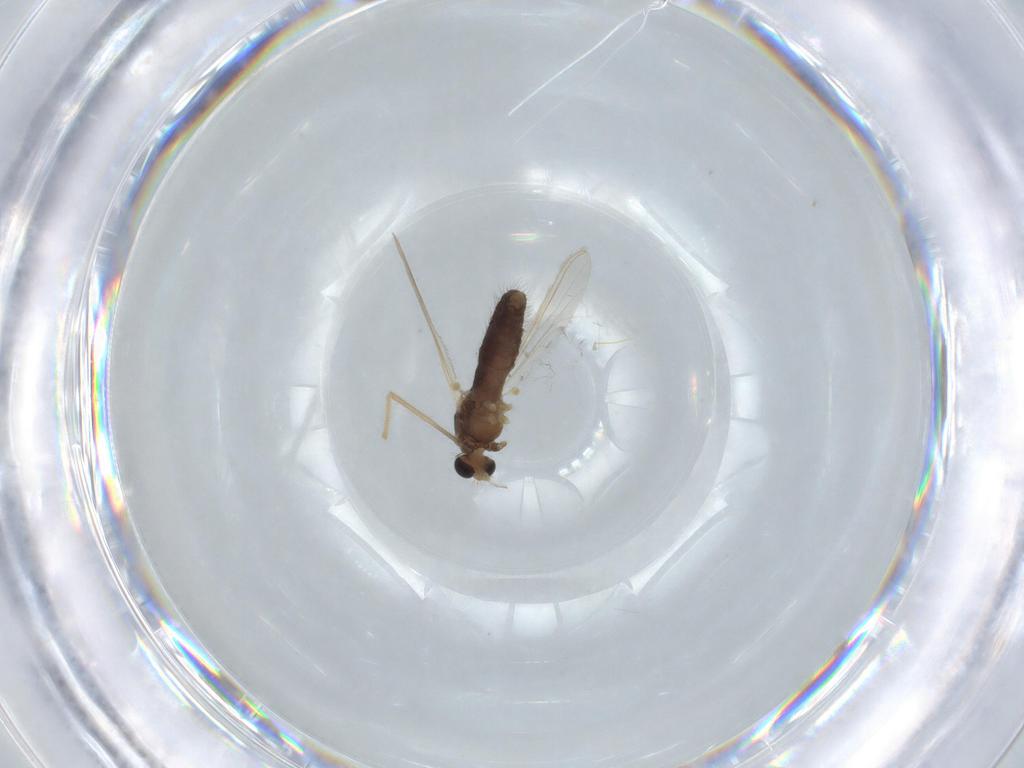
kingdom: Animalia
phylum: Arthropoda
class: Insecta
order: Diptera
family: Chironomidae
